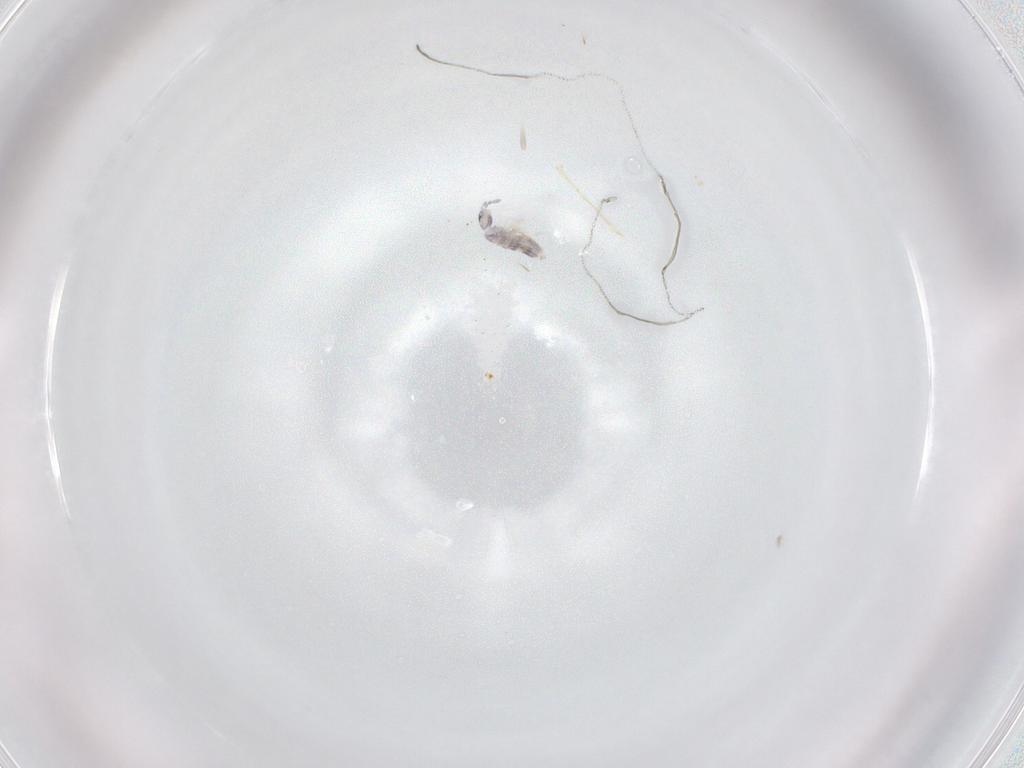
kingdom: Animalia
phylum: Arthropoda
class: Collembola
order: Entomobryomorpha
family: Entomobryidae
